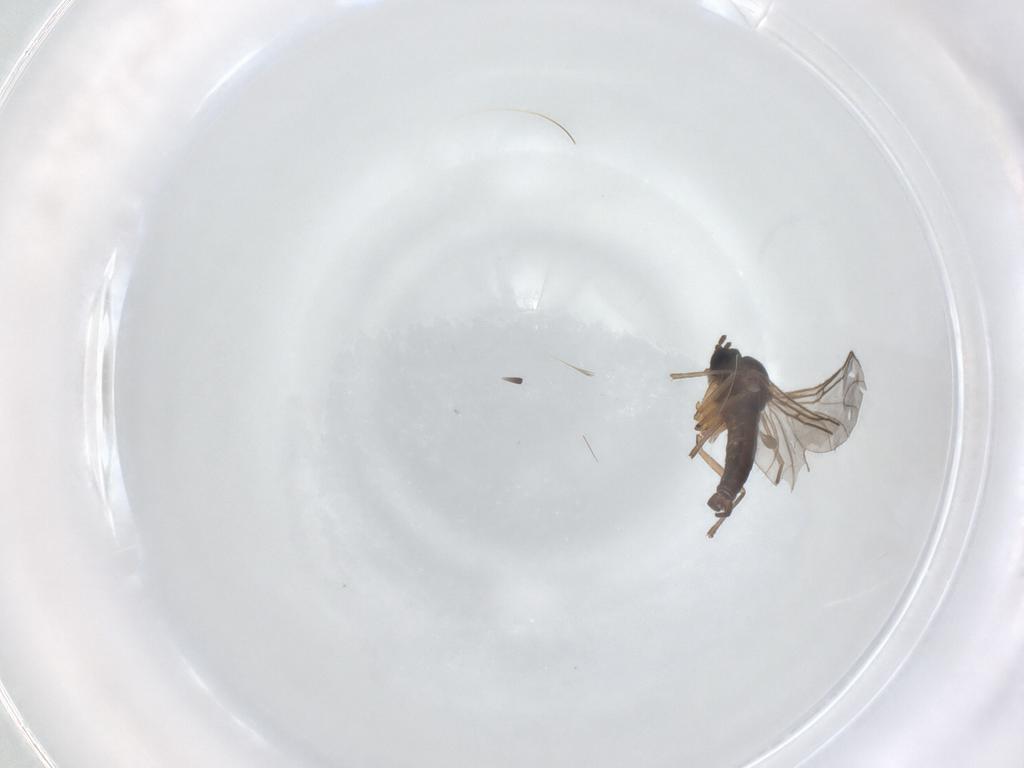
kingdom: Animalia
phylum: Arthropoda
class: Insecta
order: Diptera
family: Sciaridae
